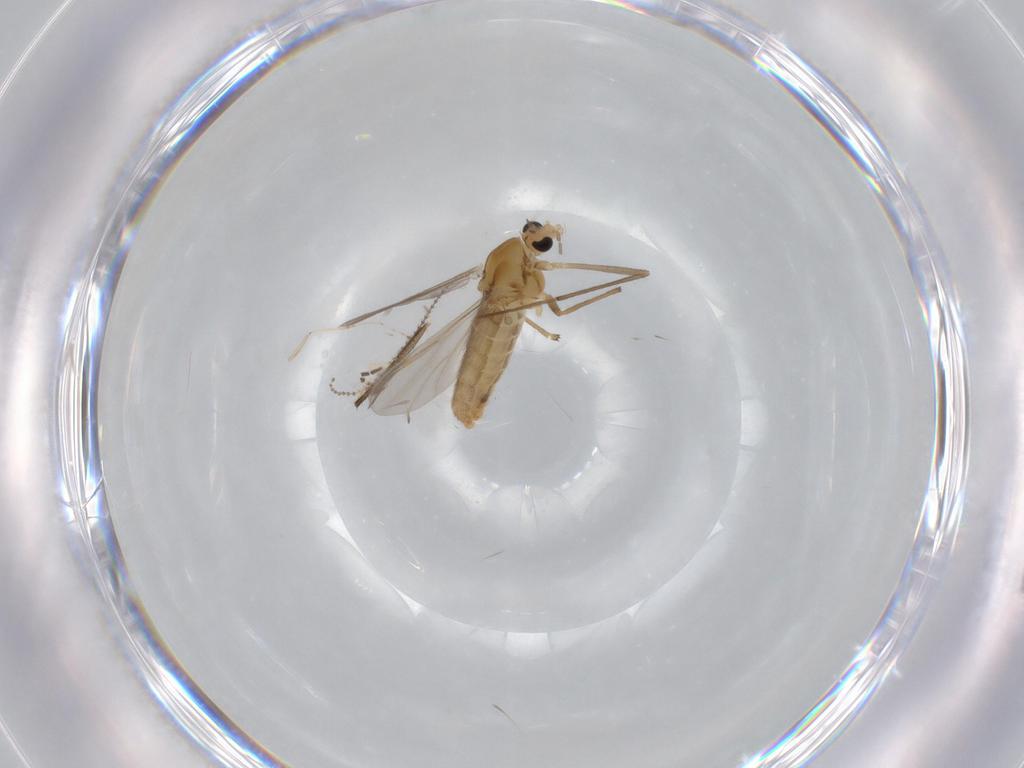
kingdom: Animalia
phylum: Arthropoda
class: Insecta
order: Diptera
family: Chironomidae
